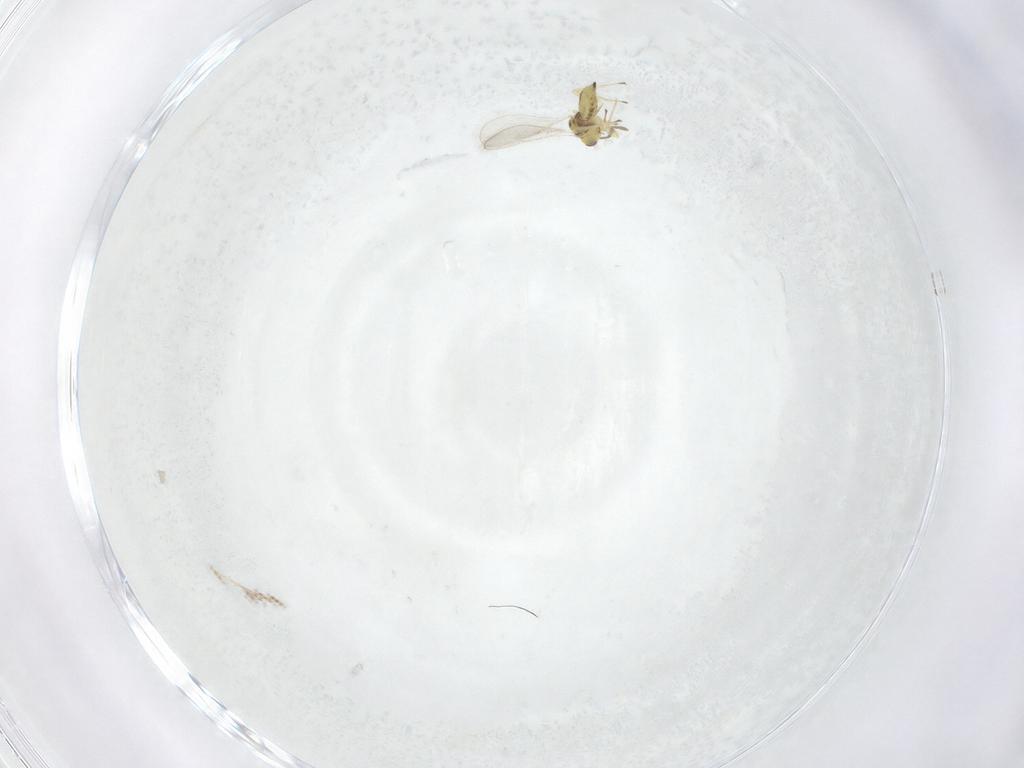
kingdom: Animalia
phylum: Arthropoda
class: Insecta
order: Hymenoptera
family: Eulophidae
